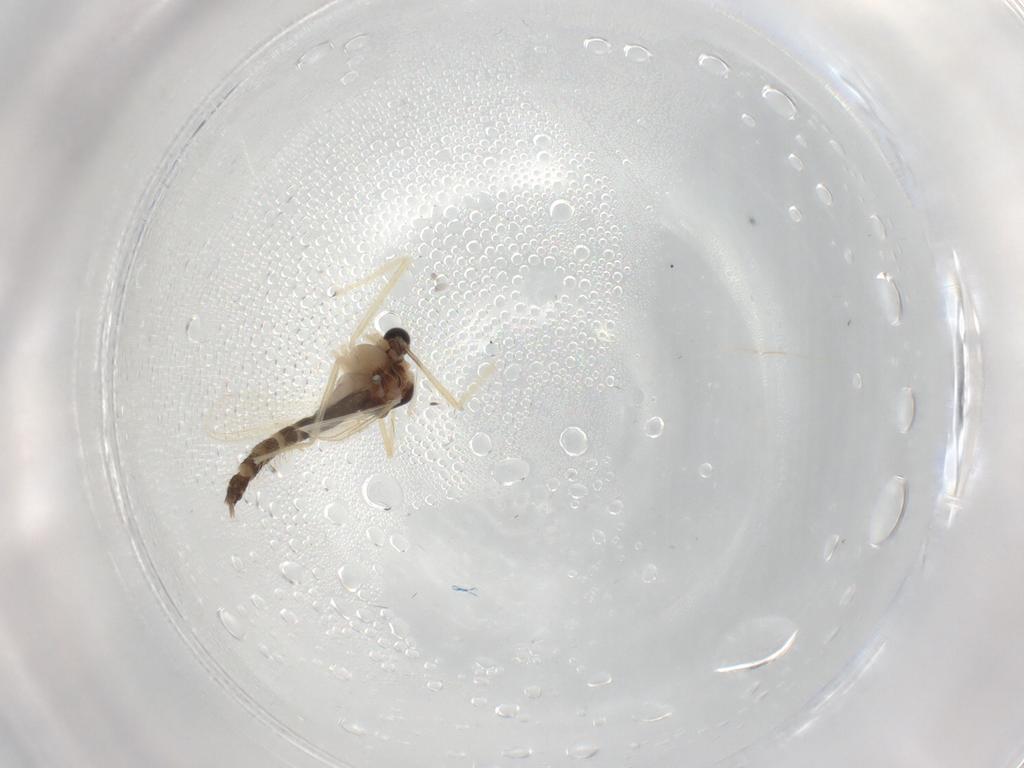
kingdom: Animalia
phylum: Arthropoda
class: Insecta
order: Diptera
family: Chironomidae
